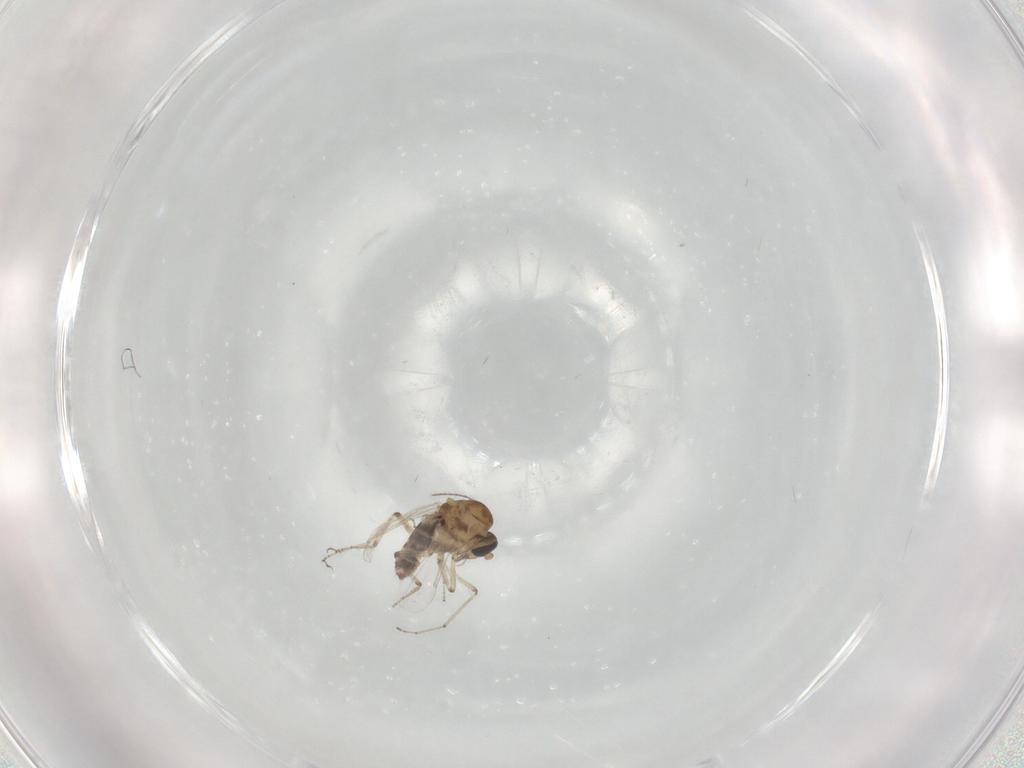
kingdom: Animalia
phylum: Arthropoda
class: Insecta
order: Diptera
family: Ceratopogonidae
